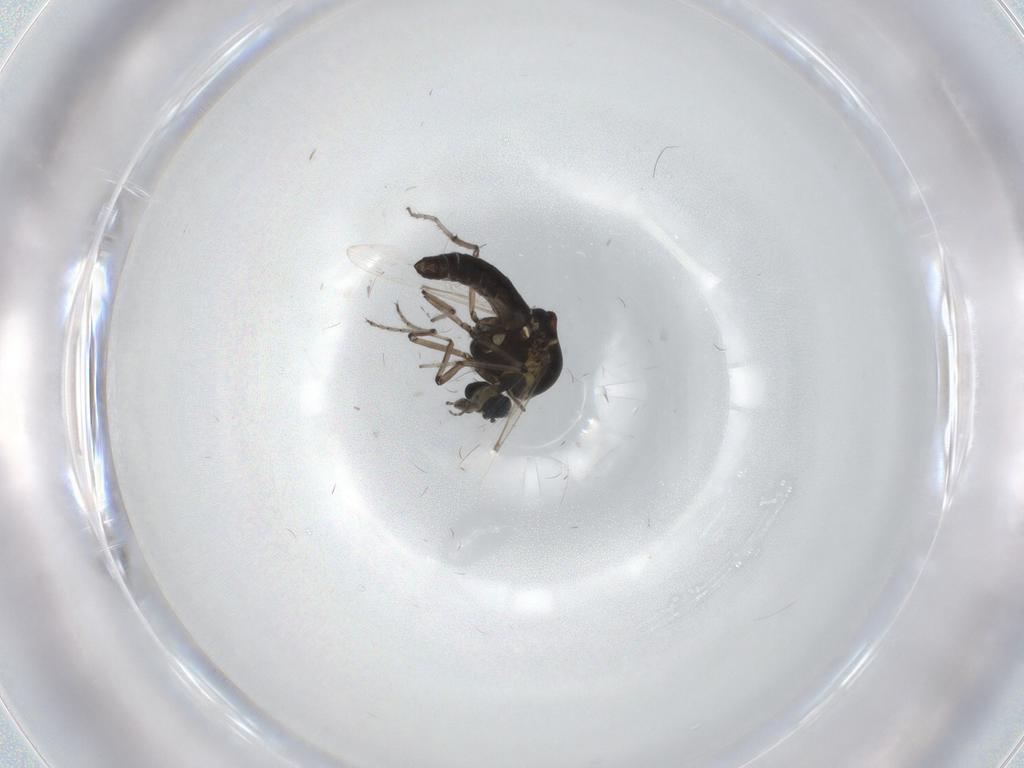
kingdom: Animalia
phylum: Arthropoda
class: Insecta
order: Diptera
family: Ceratopogonidae
